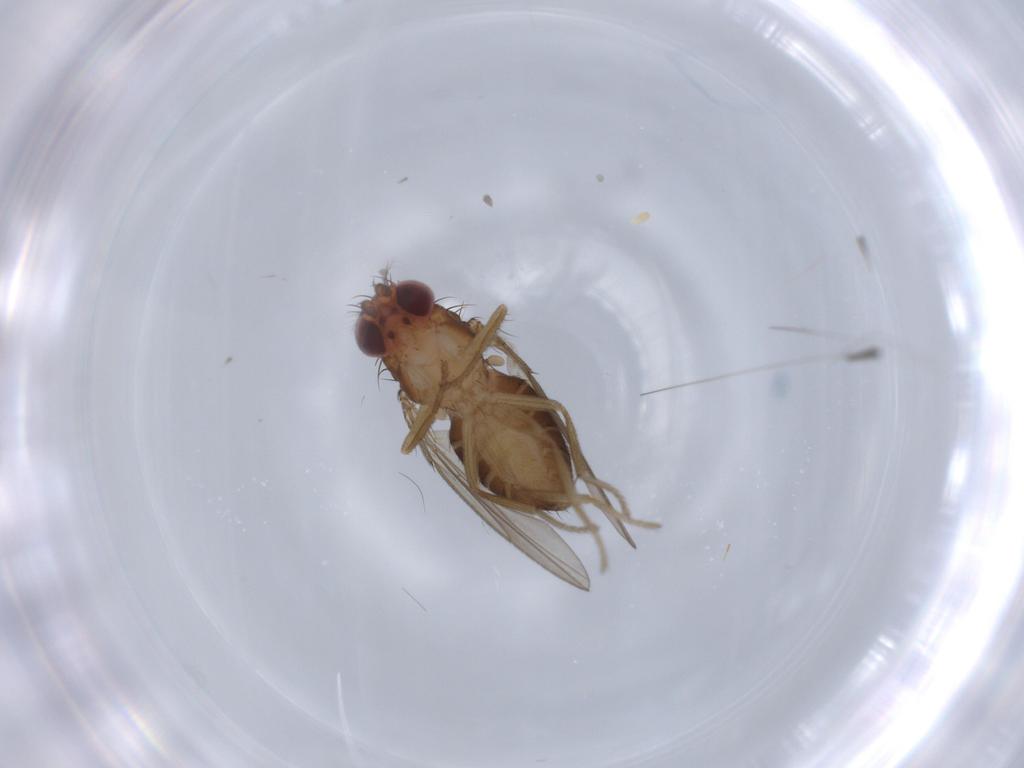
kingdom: Animalia
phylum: Arthropoda
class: Insecta
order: Diptera
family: Drosophilidae
